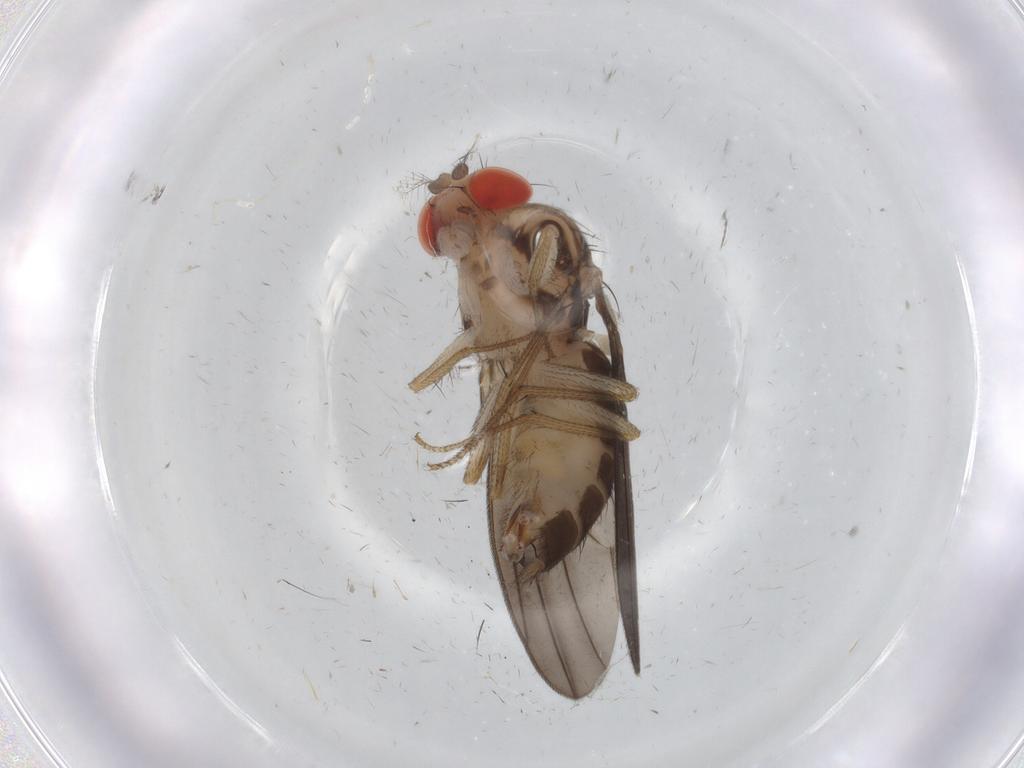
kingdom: Animalia
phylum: Arthropoda
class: Insecta
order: Diptera
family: Drosophilidae
